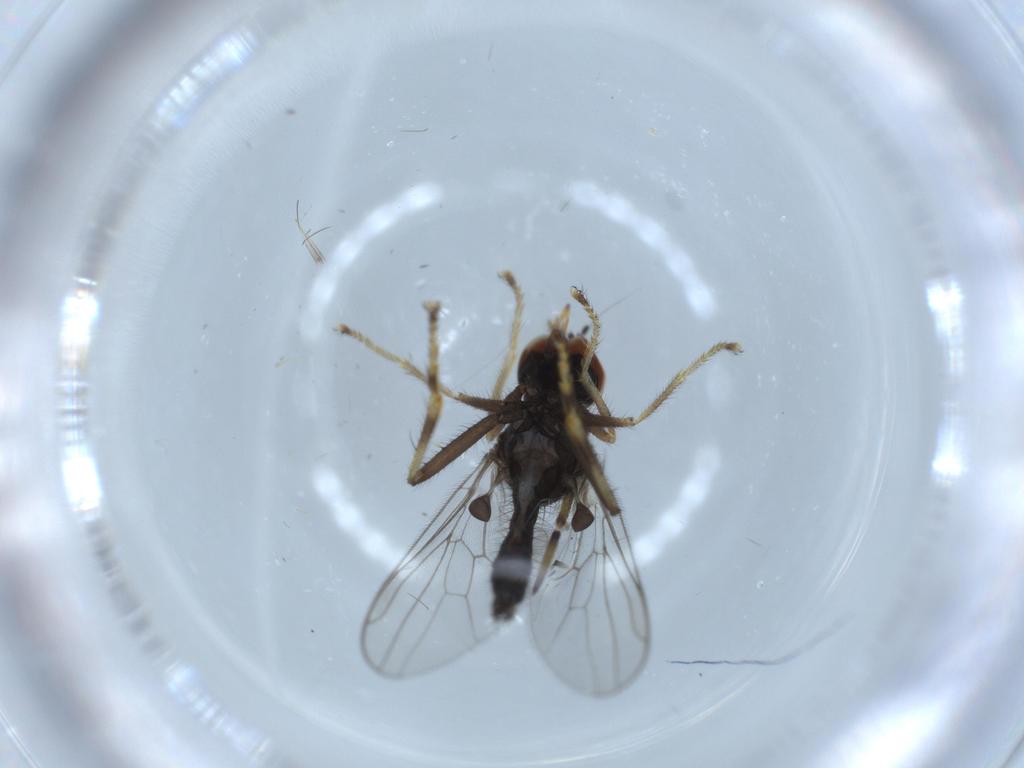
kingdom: Animalia
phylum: Arthropoda
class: Insecta
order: Diptera
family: Hybotidae
